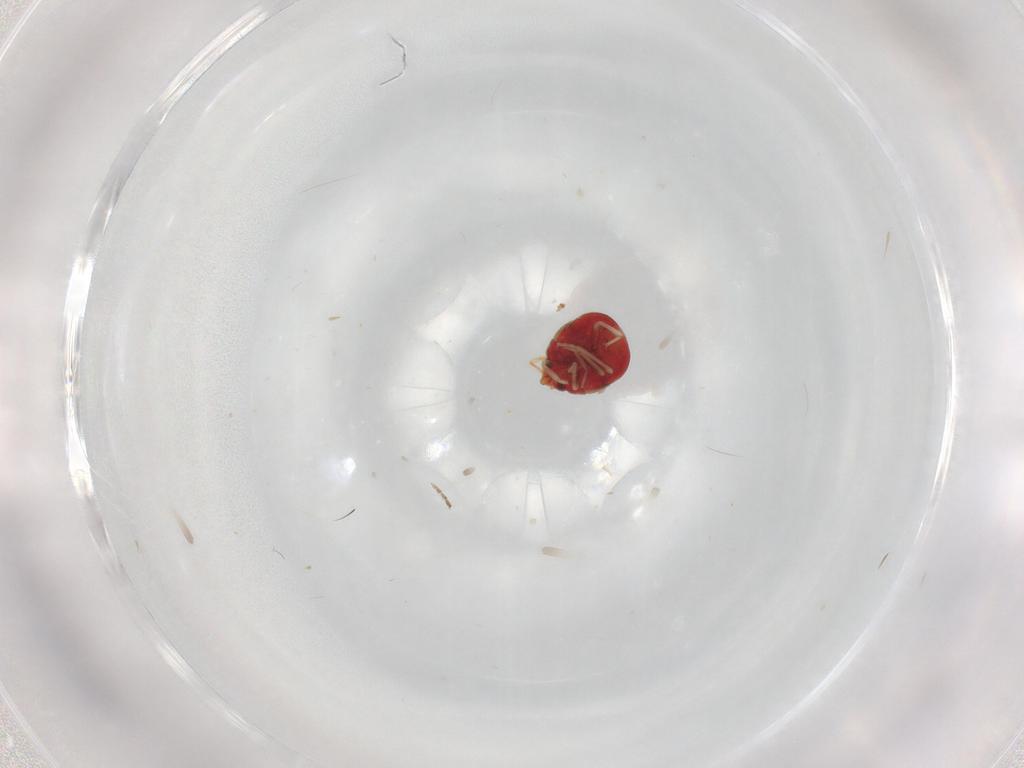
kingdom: Animalia
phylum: Arthropoda
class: Insecta
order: Hemiptera
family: Anthocoridae
